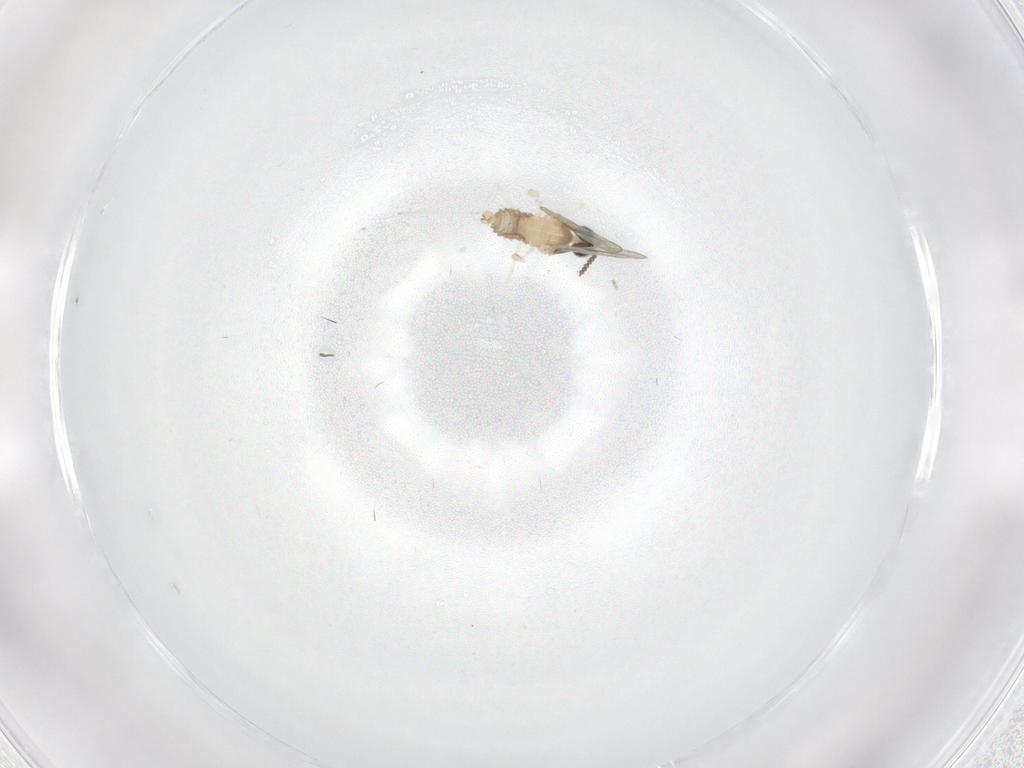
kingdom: Animalia
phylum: Arthropoda
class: Insecta
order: Diptera
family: Cecidomyiidae
